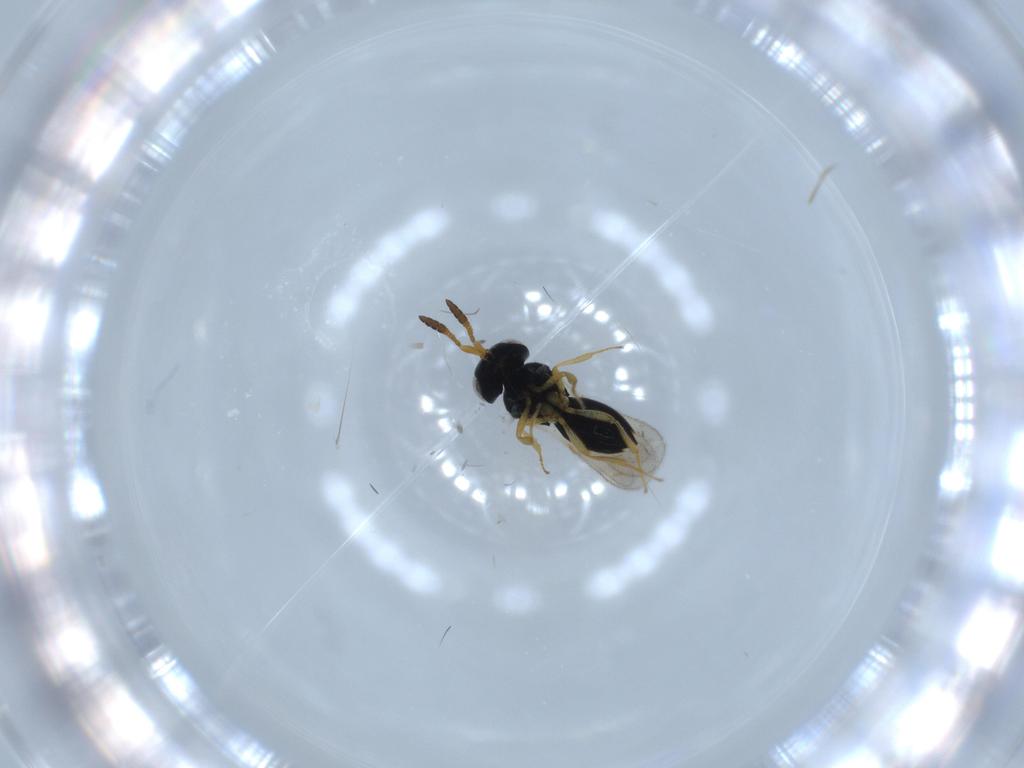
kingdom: Animalia
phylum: Arthropoda
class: Insecta
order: Hymenoptera
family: Scelionidae
